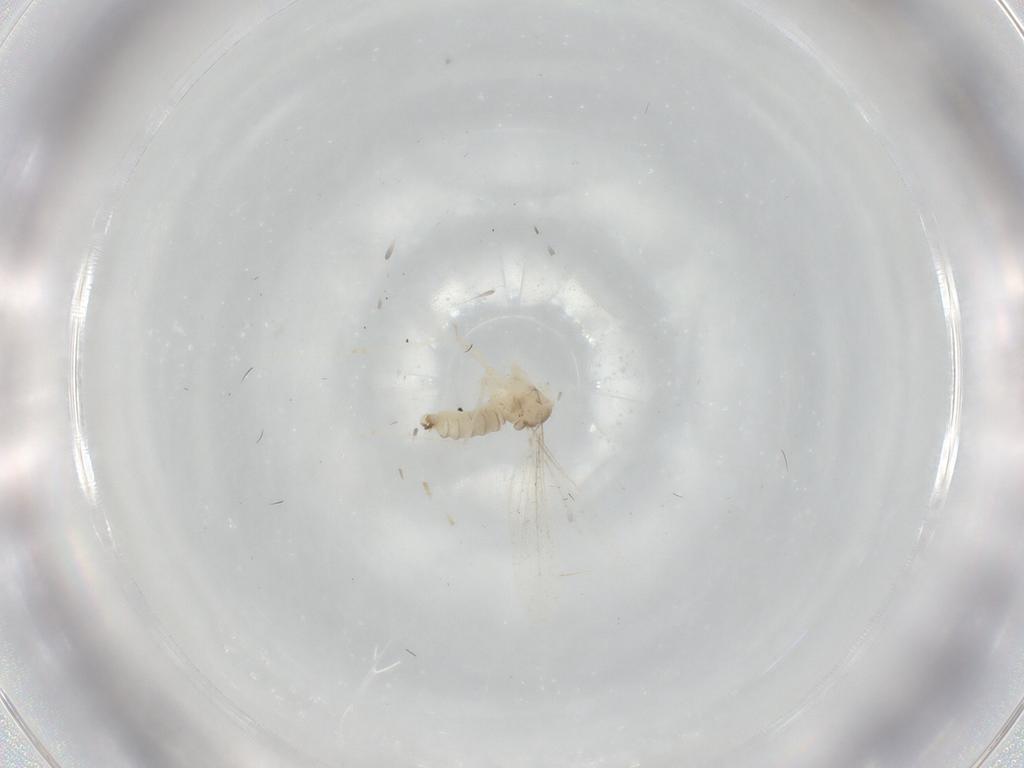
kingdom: Animalia
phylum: Arthropoda
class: Insecta
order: Diptera
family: Cecidomyiidae
